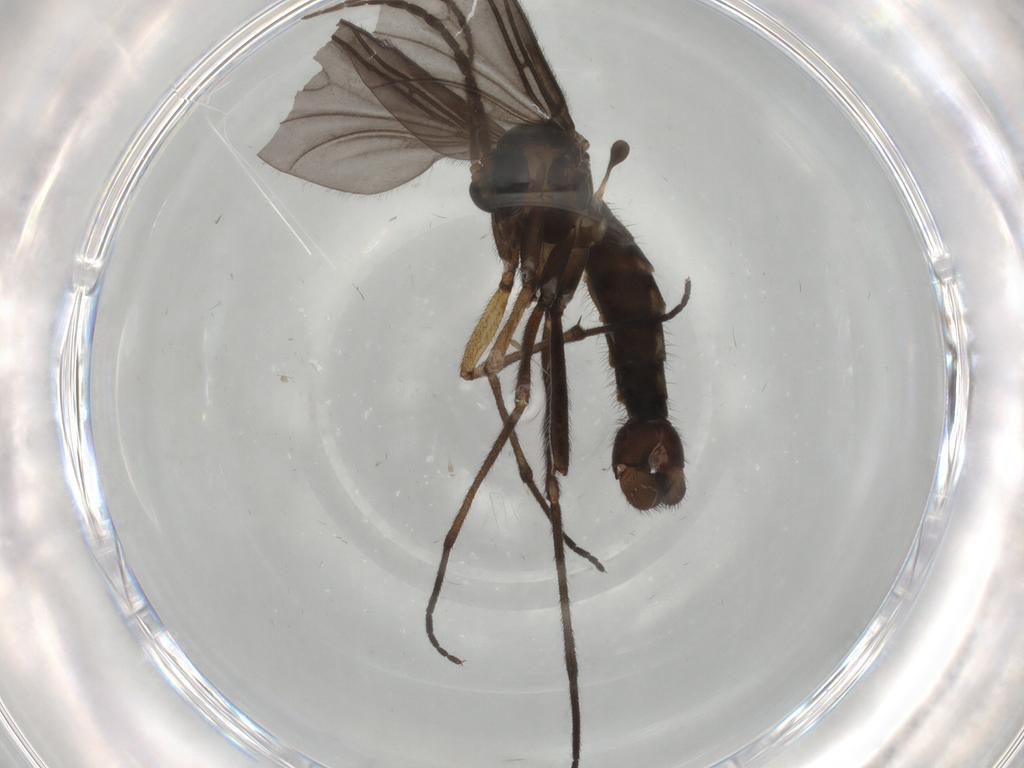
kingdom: Animalia
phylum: Arthropoda
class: Insecta
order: Diptera
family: Sciaridae
